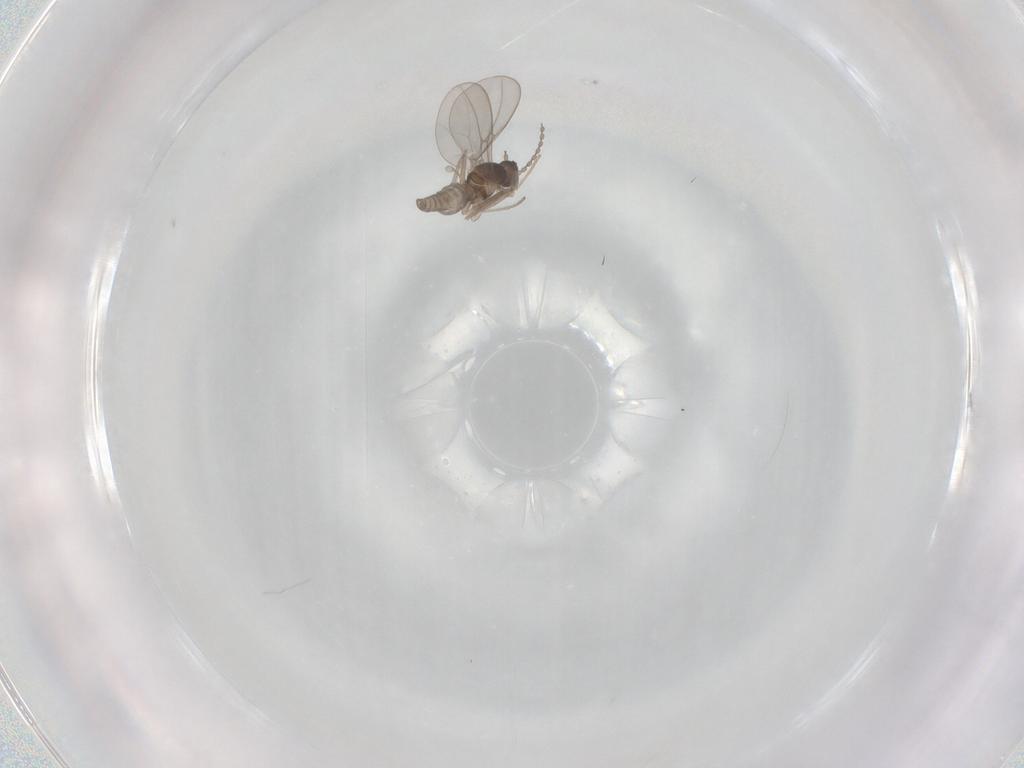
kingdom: Animalia
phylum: Arthropoda
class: Insecta
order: Diptera
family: Keroplatidae
